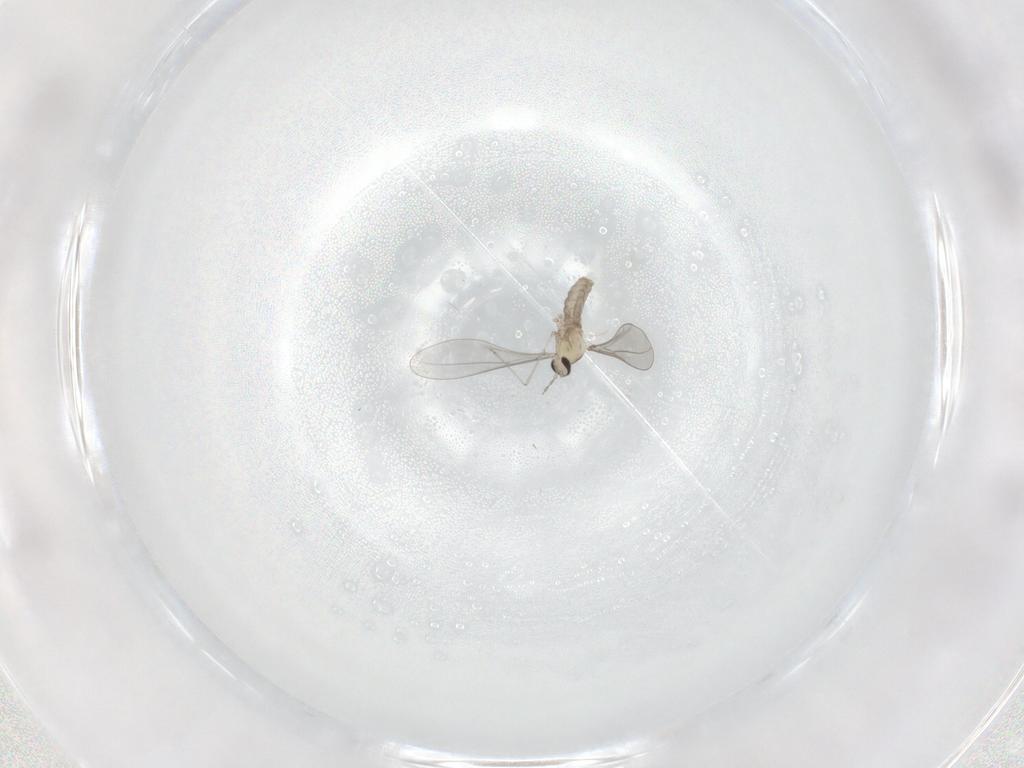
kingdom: Animalia
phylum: Arthropoda
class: Insecta
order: Diptera
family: Cecidomyiidae
